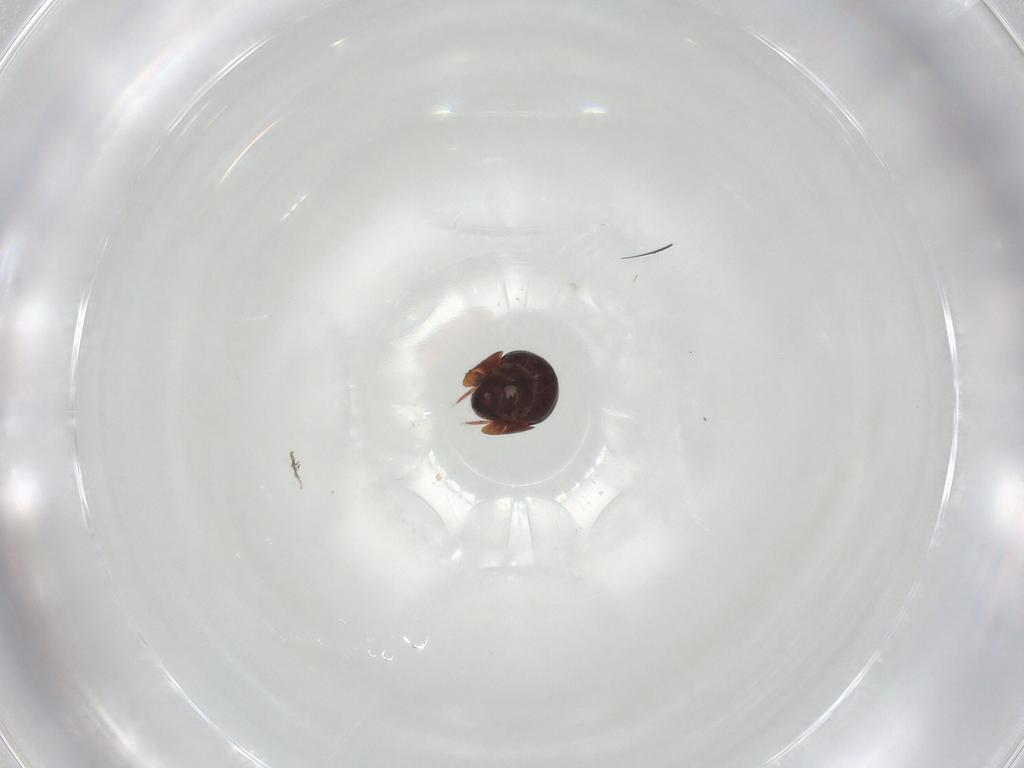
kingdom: Animalia
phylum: Arthropoda
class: Arachnida
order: Sarcoptiformes
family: Galumnidae
